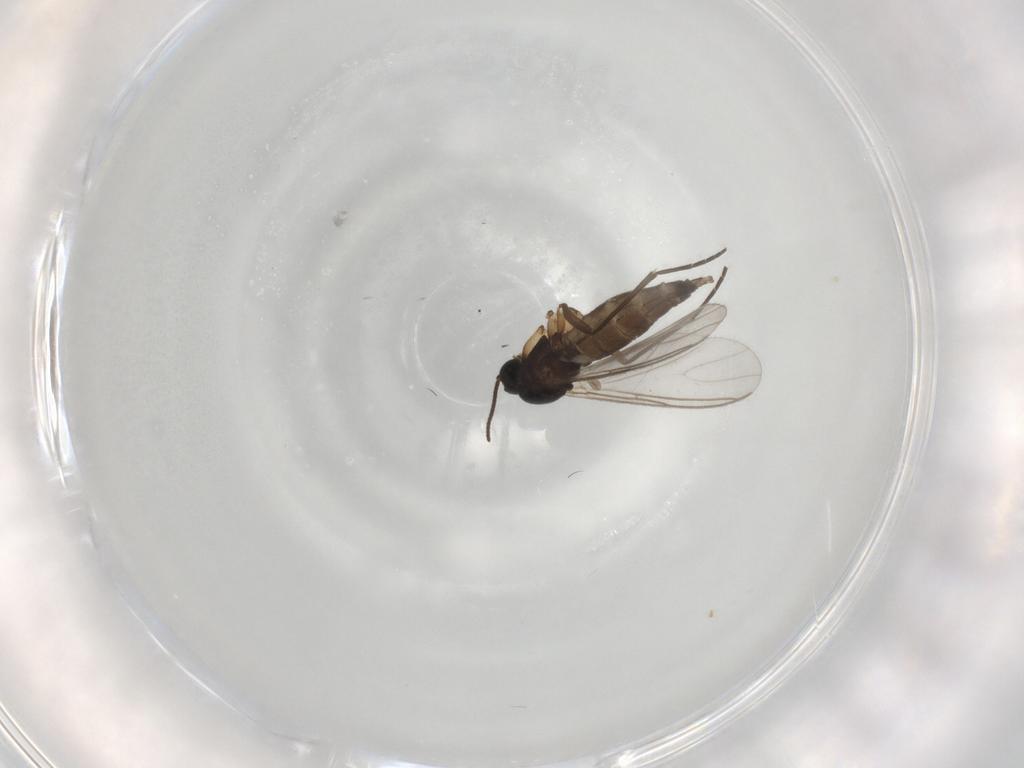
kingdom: Animalia
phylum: Arthropoda
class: Insecta
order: Diptera
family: Sciaridae
